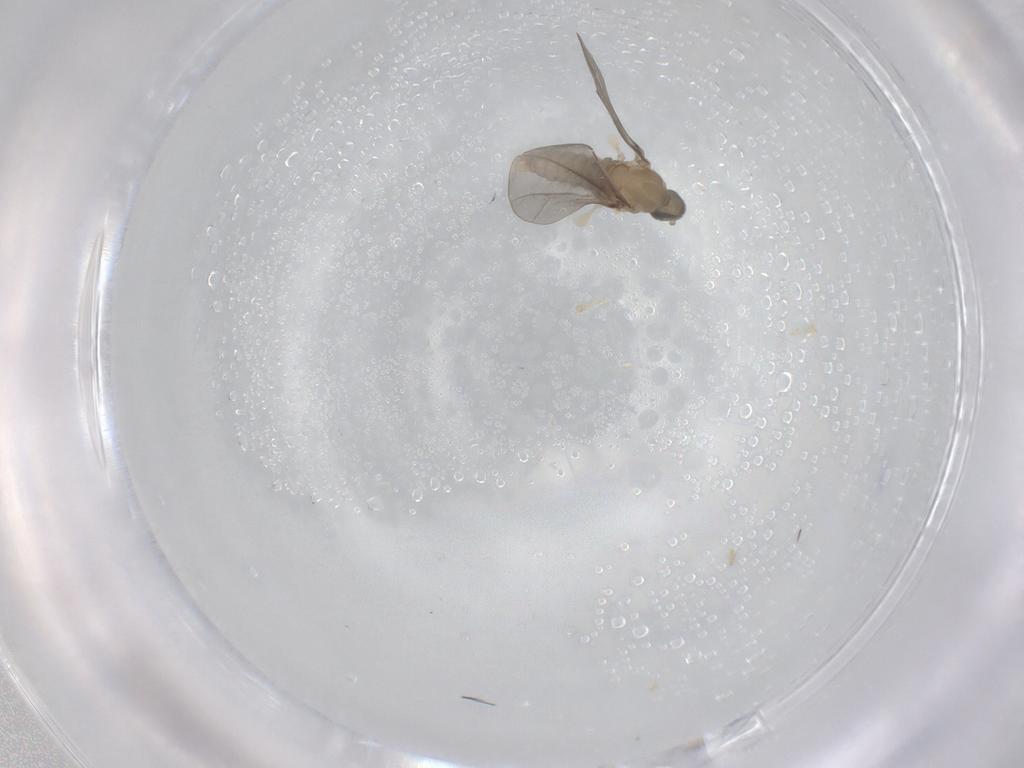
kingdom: Animalia
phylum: Arthropoda
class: Insecta
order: Diptera
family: Cecidomyiidae
